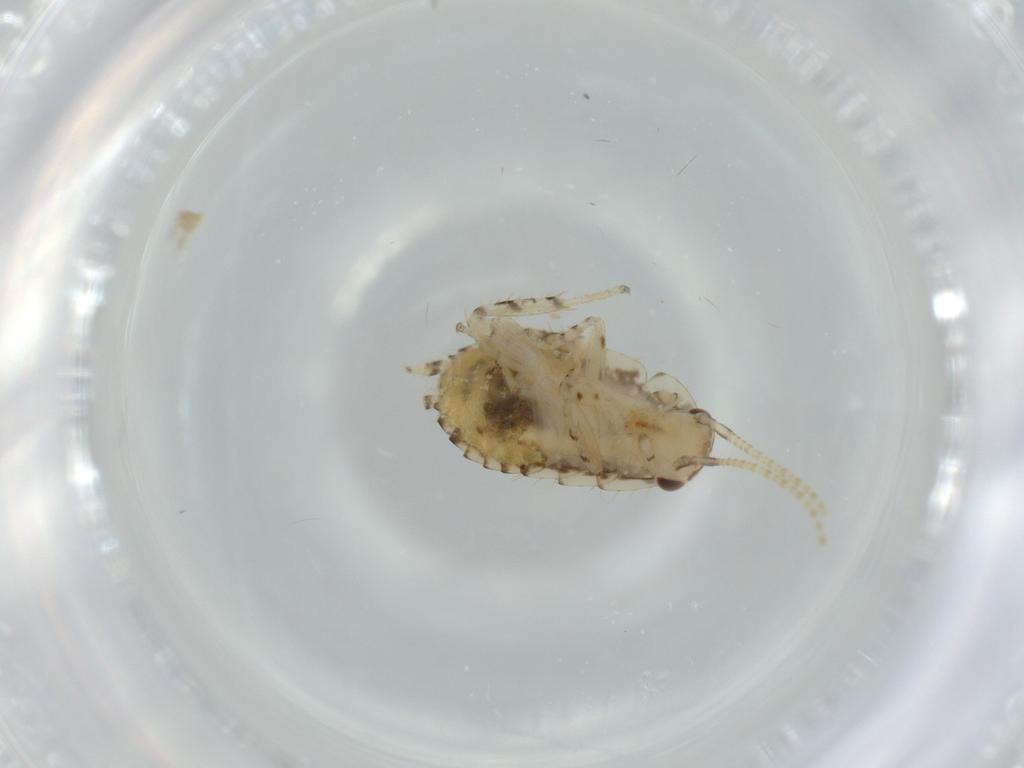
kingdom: Animalia
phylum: Arthropoda
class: Insecta
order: Blattodea
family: Ectobiidae
